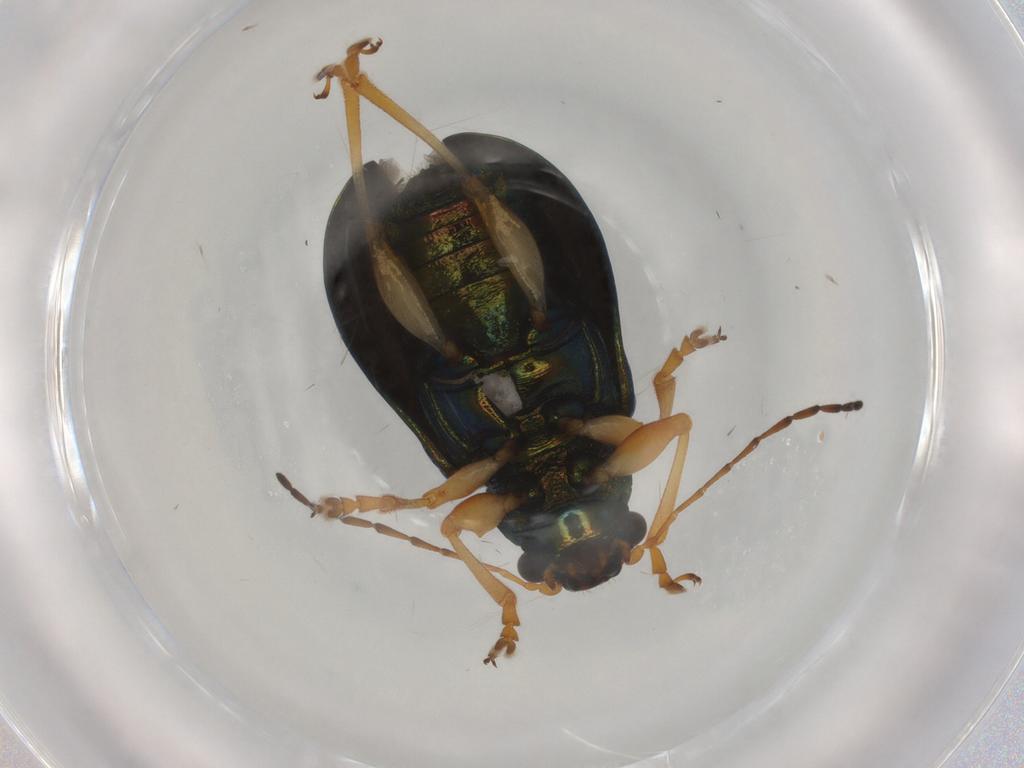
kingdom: Animalia
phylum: Arthropoda
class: Insecta
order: Coleoptera
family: Chrysomelidae
